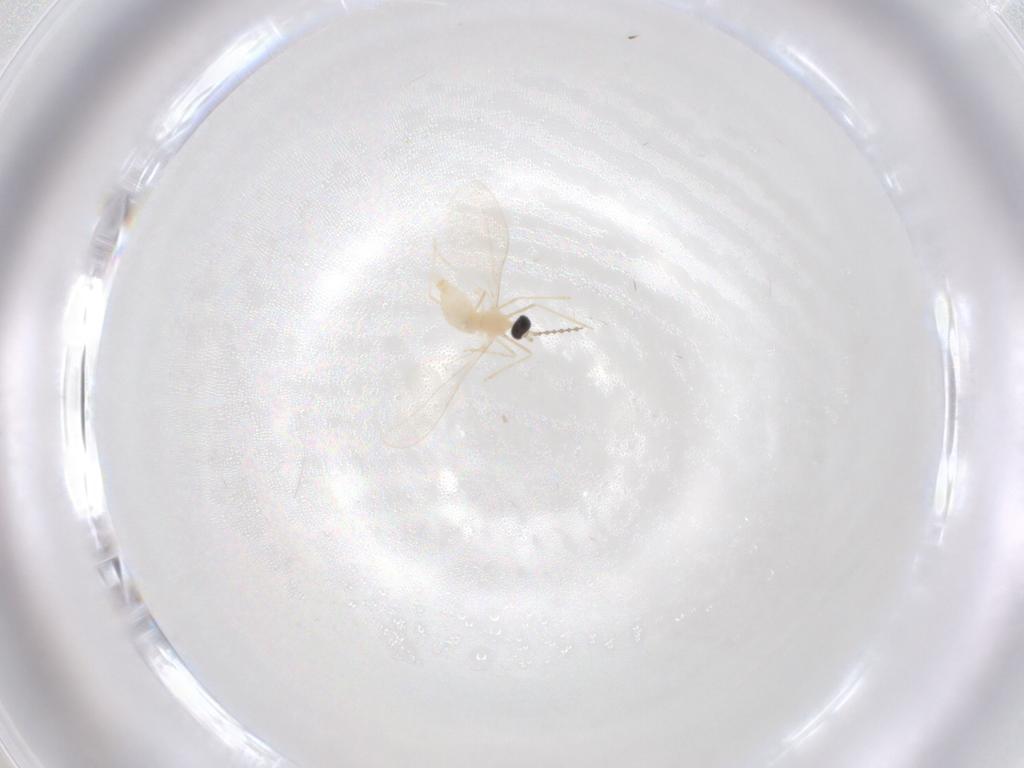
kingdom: Animalia
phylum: Arthropoda
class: Insecta
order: Diptera
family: Cecidomyiidae
